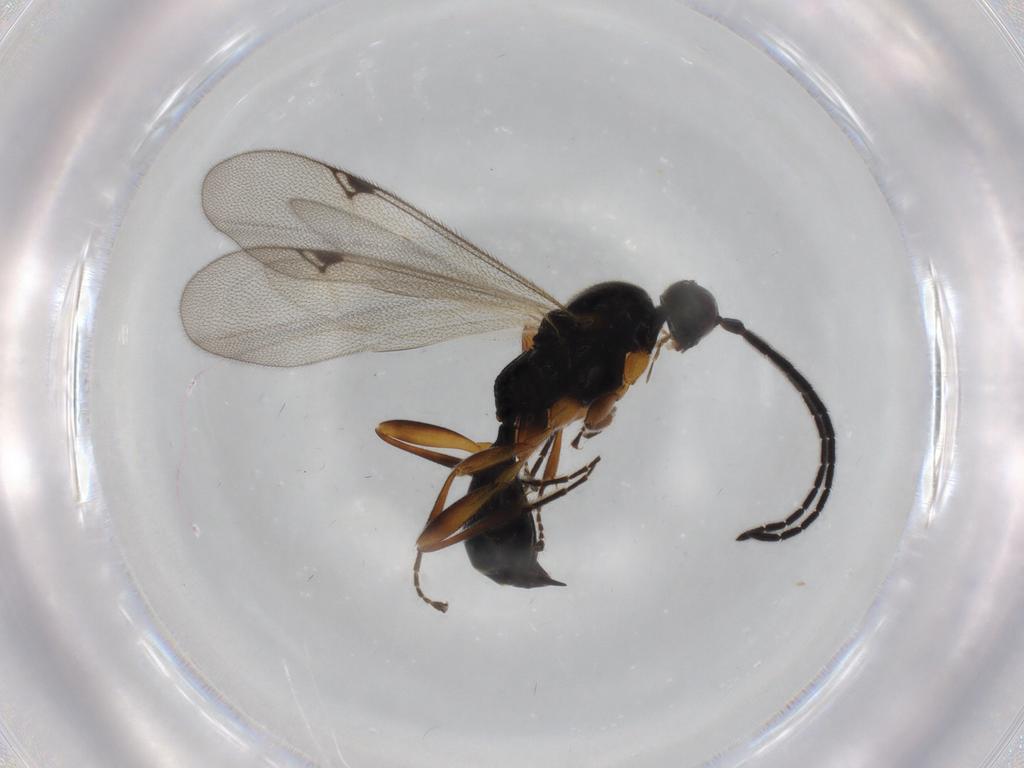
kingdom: Animalia
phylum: Arthropoda
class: Insecta
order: Hymenoptera
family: Proctotrupidae
